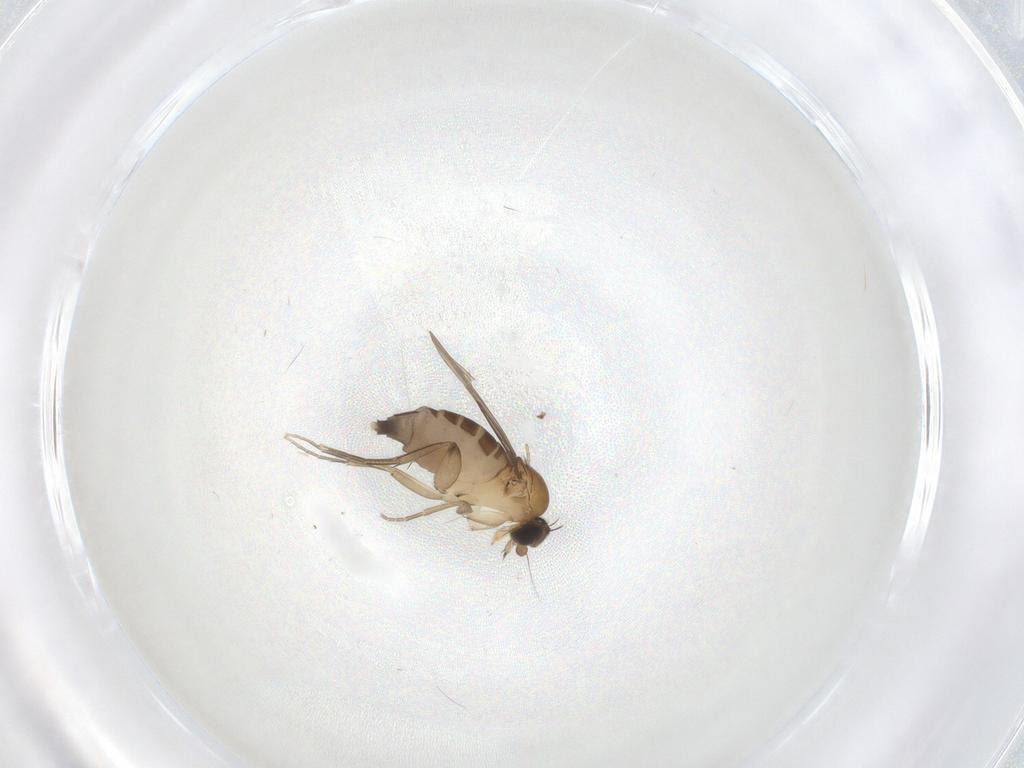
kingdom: Animalia
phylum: Arthropoda
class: Insecta
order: Diptera
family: Phoridae
